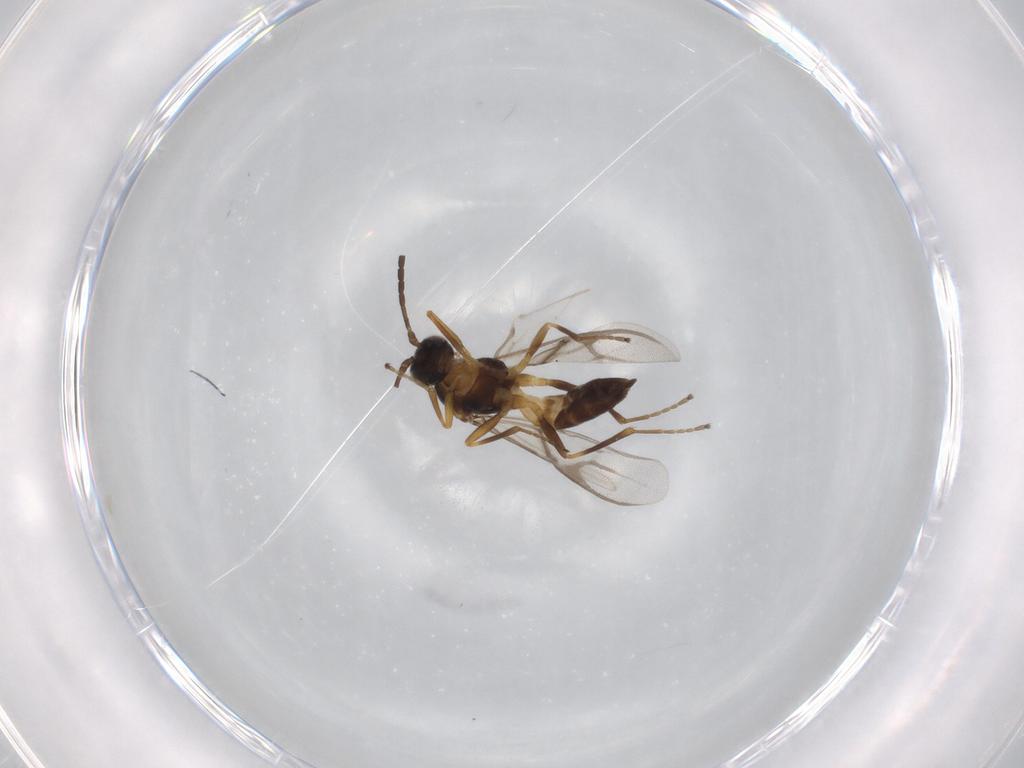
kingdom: Animalia
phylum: Arthropoda
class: Insecta
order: Hymenoptera
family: Braconidae
